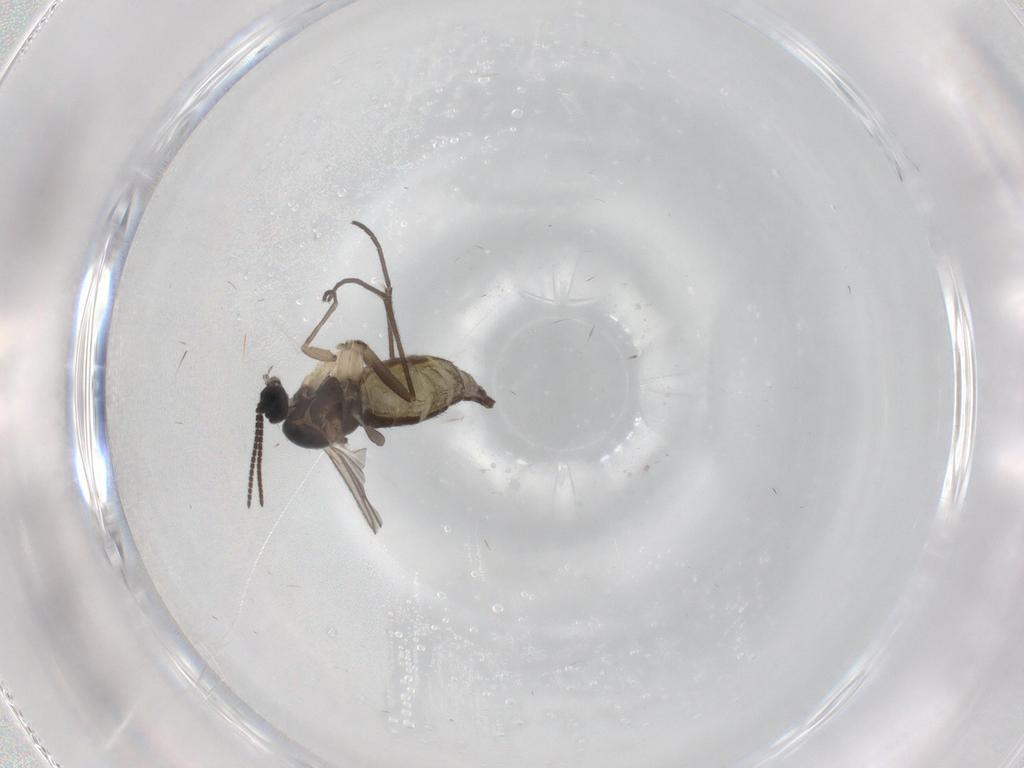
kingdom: Animalia
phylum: Arthropoda
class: Insecta
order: Diptera
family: Sciaridae
